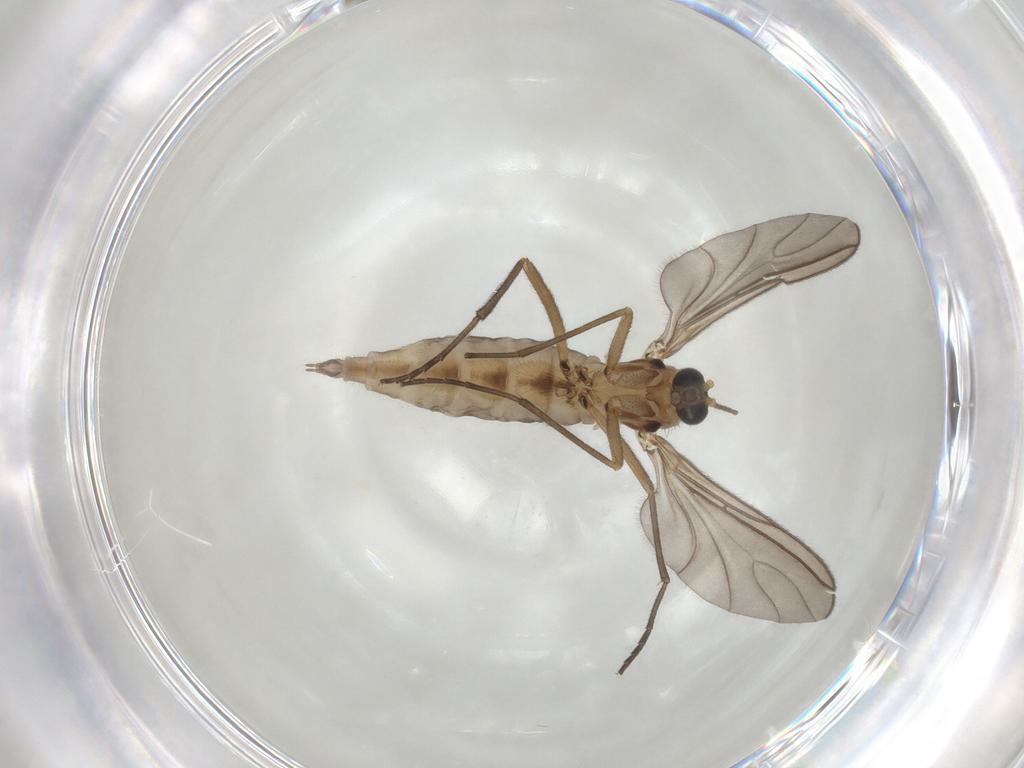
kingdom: Animalia
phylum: Arthropoda
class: Insecta
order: Diptera
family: Sciaridae
